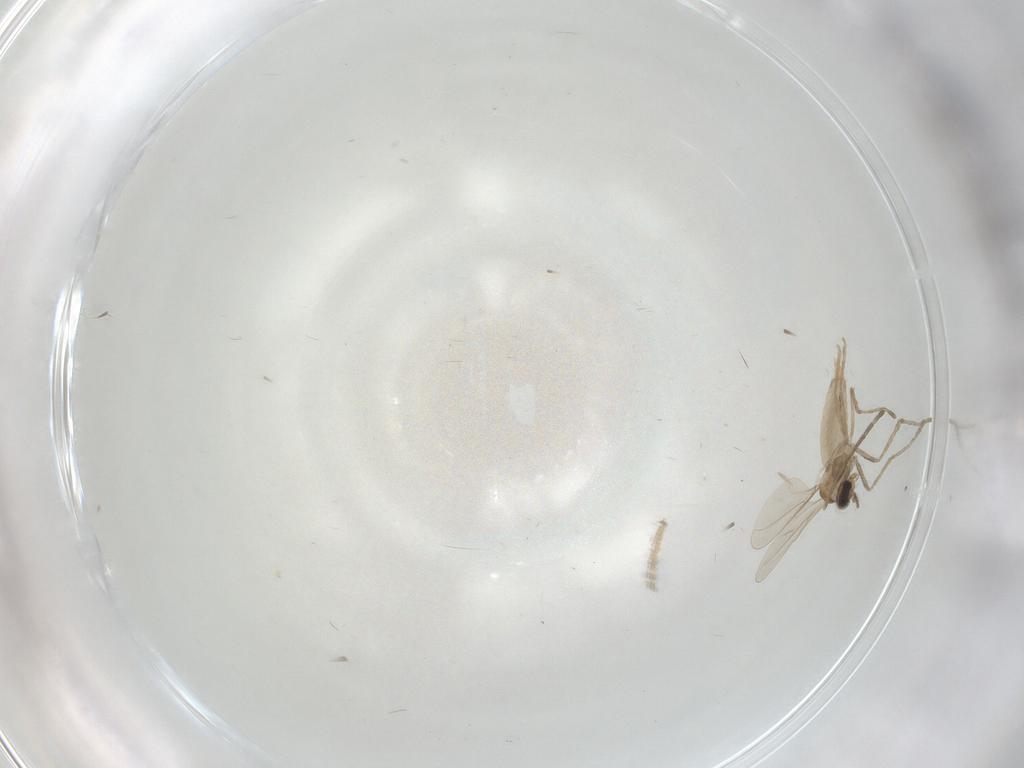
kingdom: Animalia
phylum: Arthropoda
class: Insecta
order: Diptera
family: Cecidomyiidae
